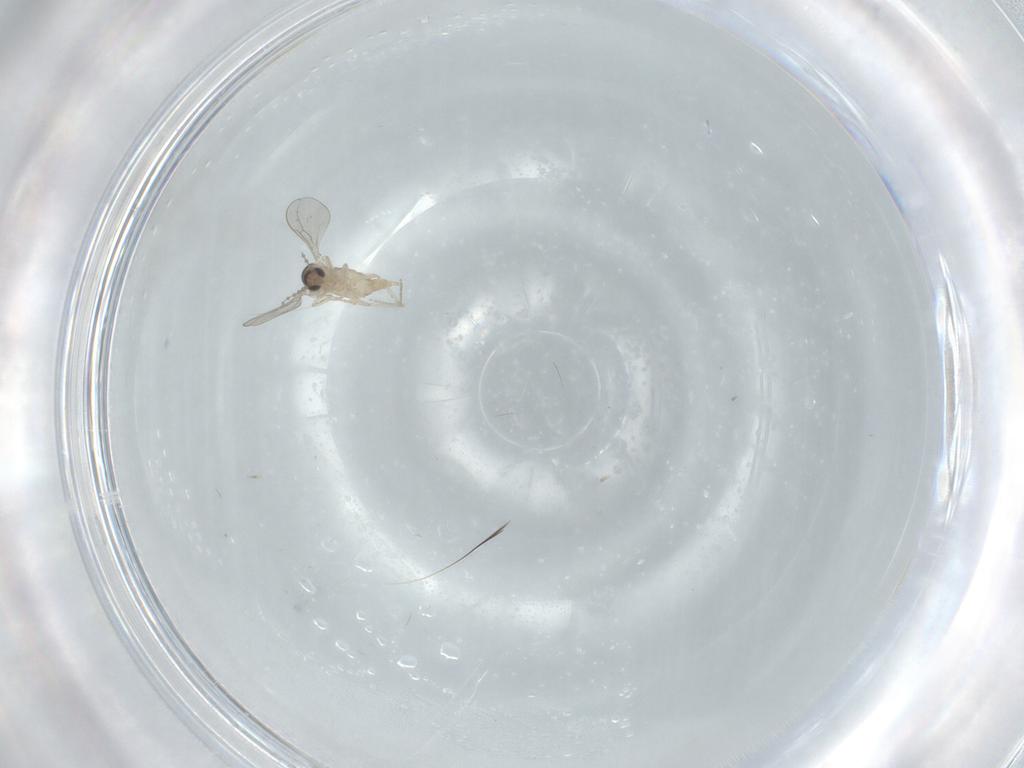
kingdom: Animalia
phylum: Arthropoda
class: Insecta
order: Diptera
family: Cecidomyiidae
